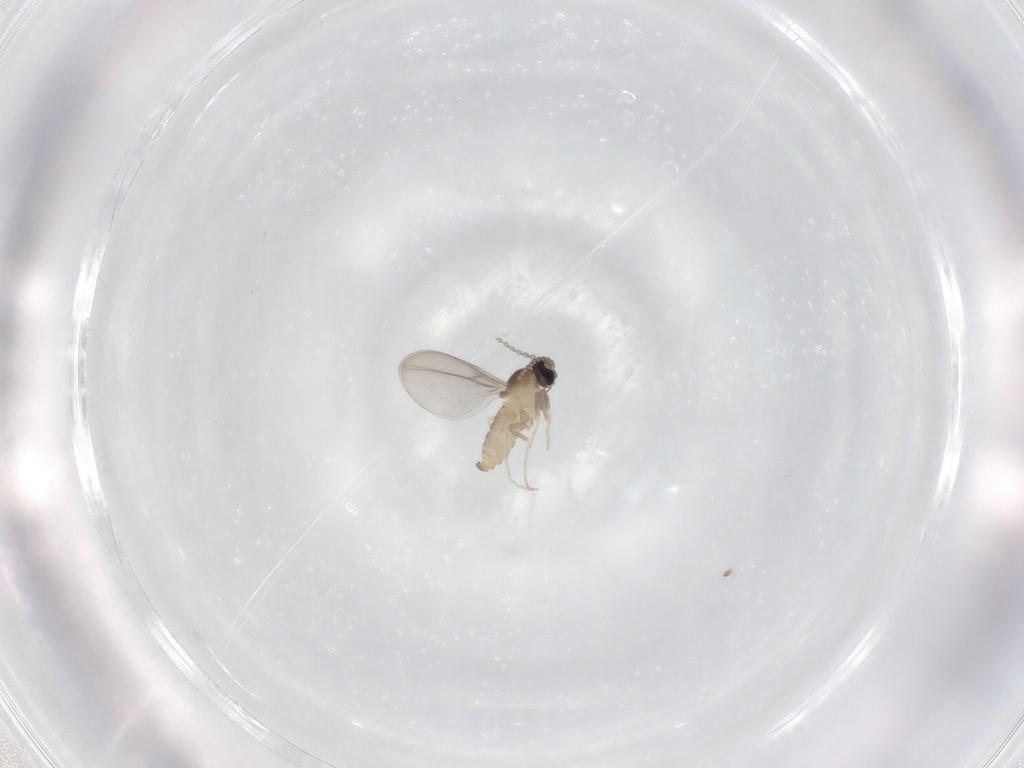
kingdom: Animalia
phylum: Arthropoda
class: Insecta
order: Diptera
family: Cecidomyiidae
